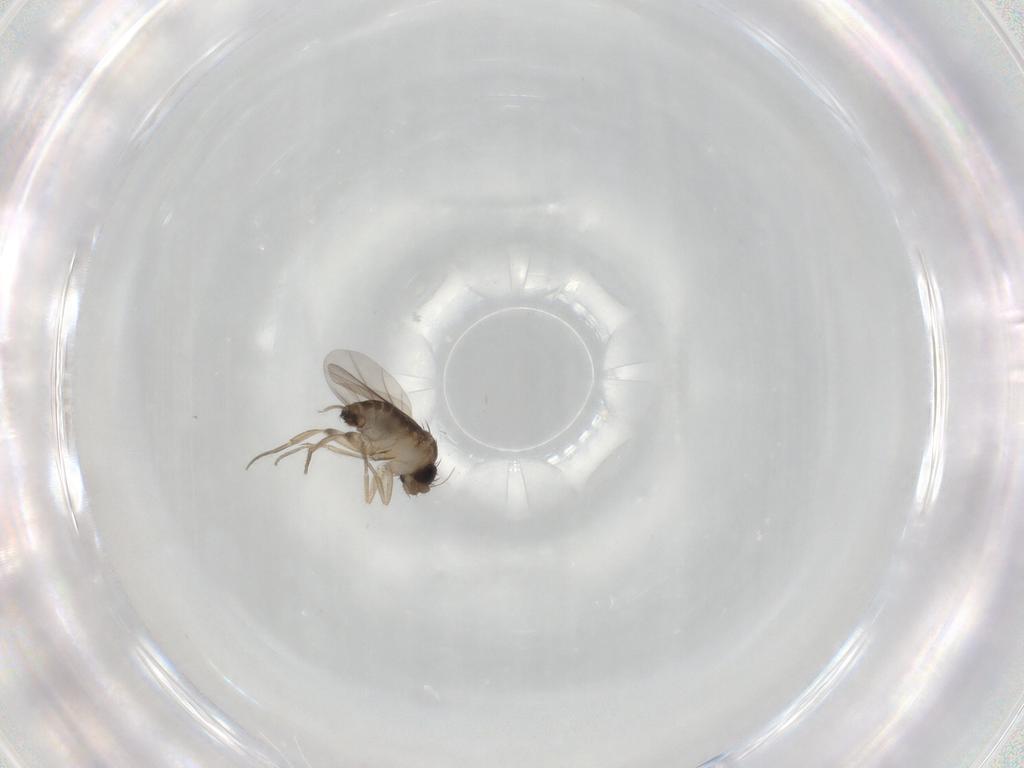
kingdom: Animalia
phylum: Arthropoda
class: Insecta
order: Diptera
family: Phoridae
